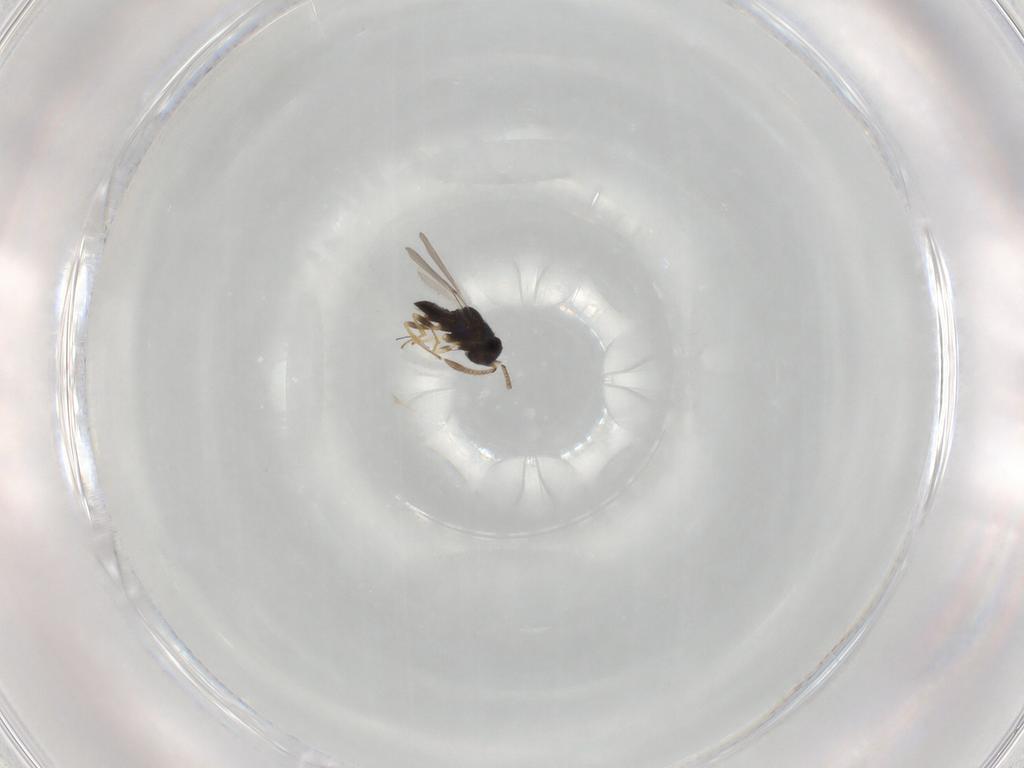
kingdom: Animalia
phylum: Arthropoda
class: Insecta
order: Hymenoptera
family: Encyrtidae
